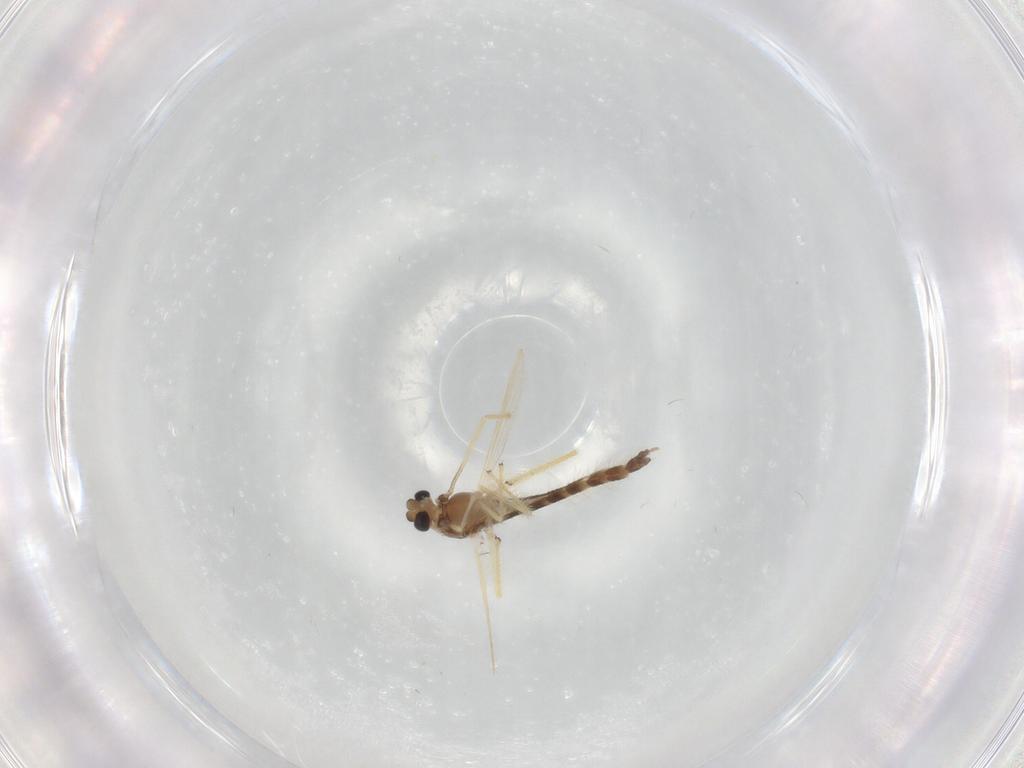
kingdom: Animalia
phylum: Arthropoda
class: Insecta
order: Diptera
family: Chironomidae
